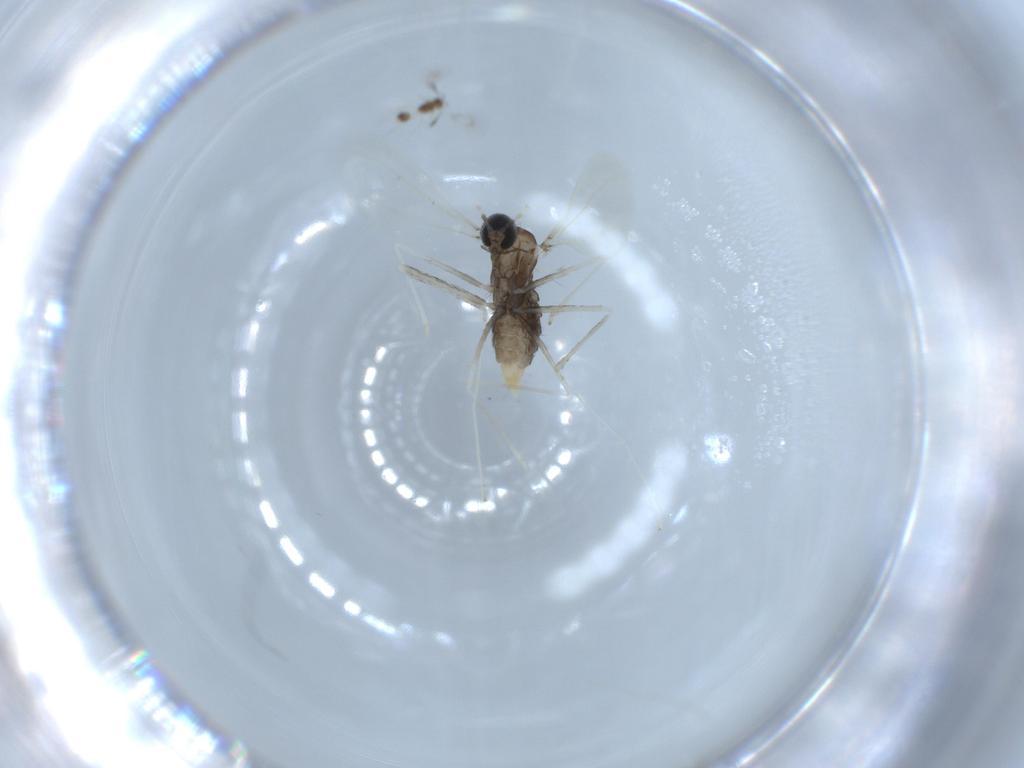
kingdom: Animalia
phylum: Arthropoda
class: Insecta
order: Diptera
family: Cecidomyiidae
